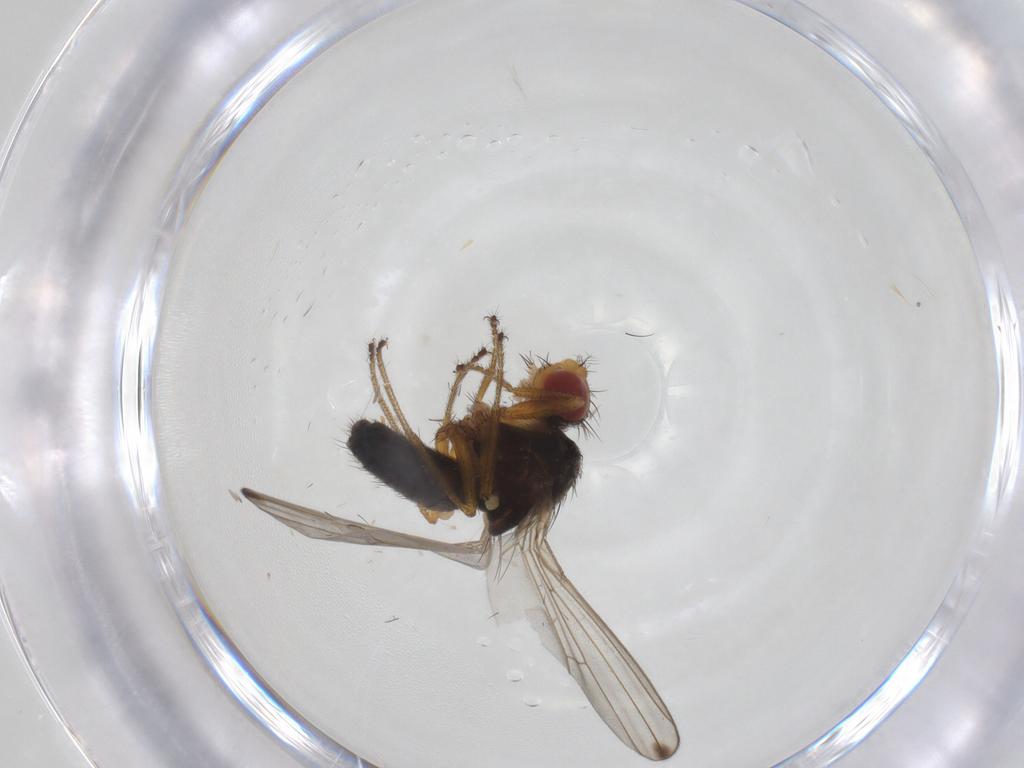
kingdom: Animalia
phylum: Arthropoda
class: Insecta
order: Diptera
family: Drosophilidae
